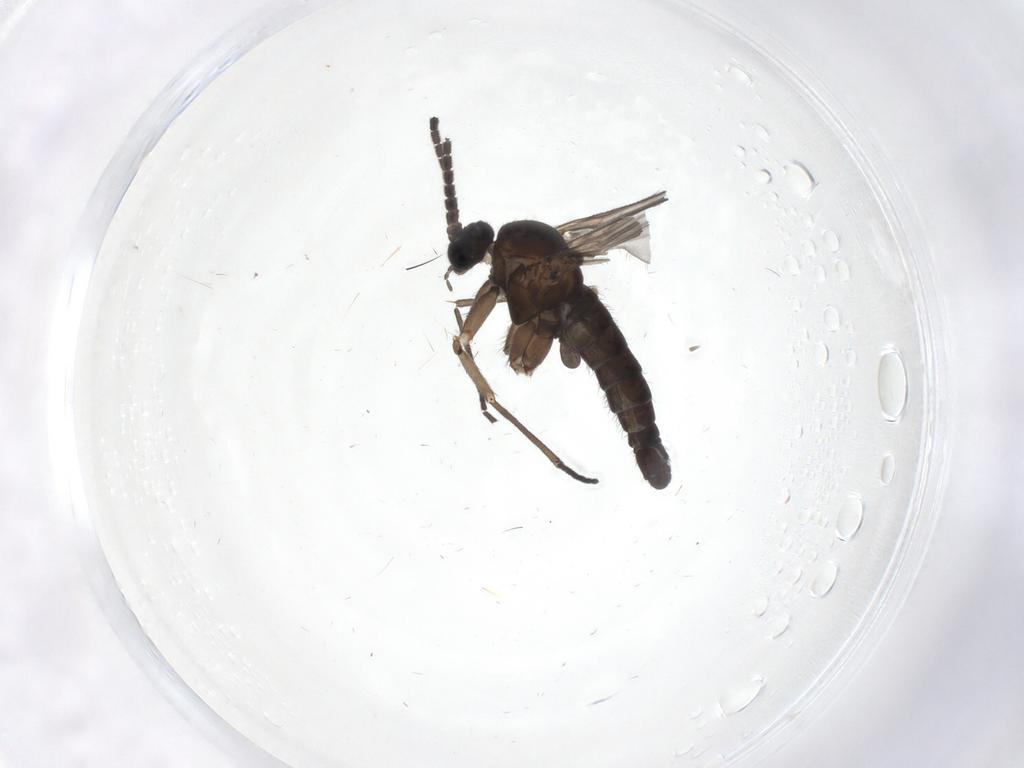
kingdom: Animalia
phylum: Arthropoda
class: Insecta
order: Diptera
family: Sciaridae
